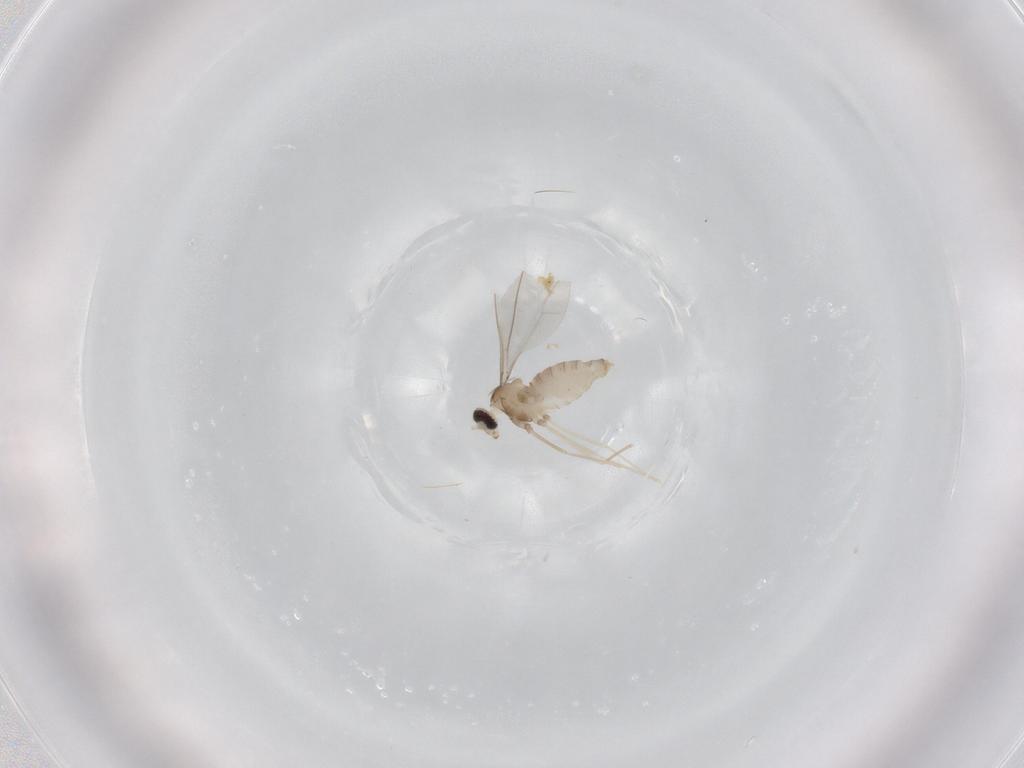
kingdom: Animalia
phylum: Arthropoda
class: Insecta
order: Diptera
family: Cecidomyiidae
